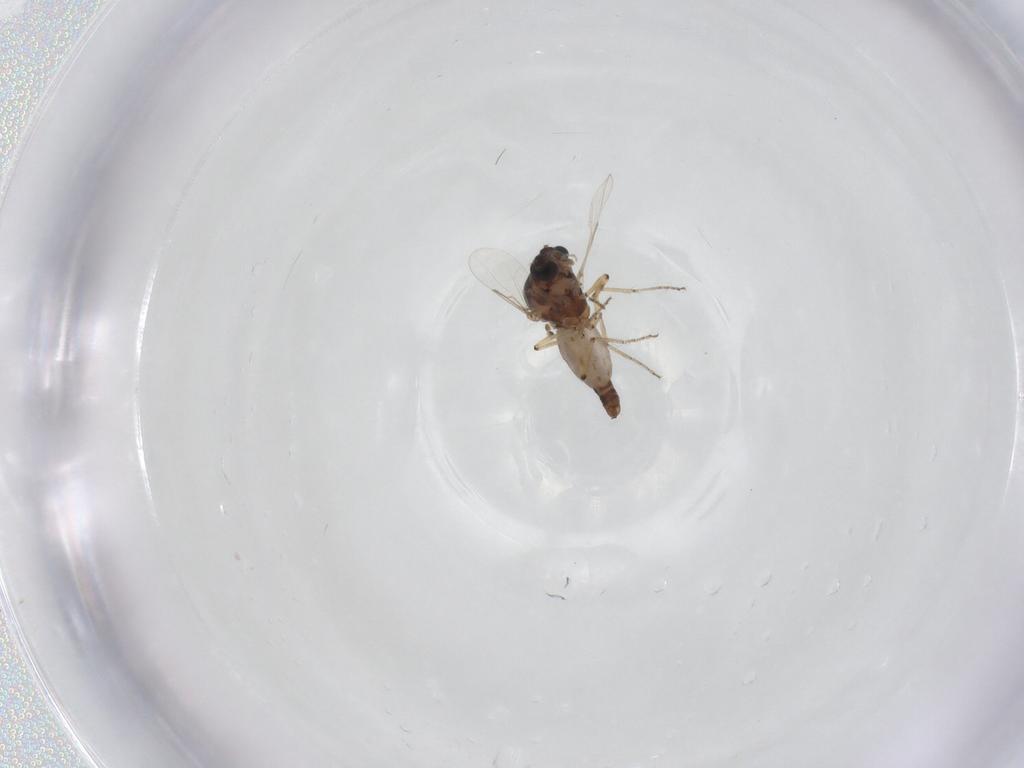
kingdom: Animalia
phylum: Arthropoda
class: Insecta
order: Diptera
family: Ceratopogonidae
